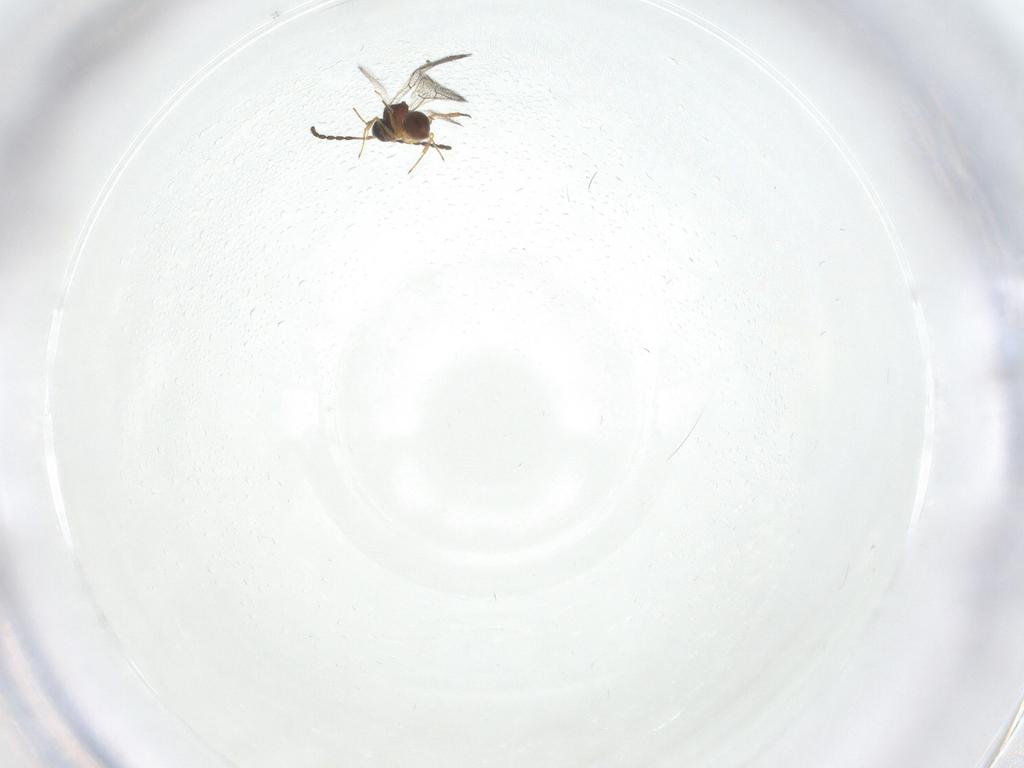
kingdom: Animalia
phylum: Arthropoda
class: Insecta
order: Hymenoptera
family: Figitidae
